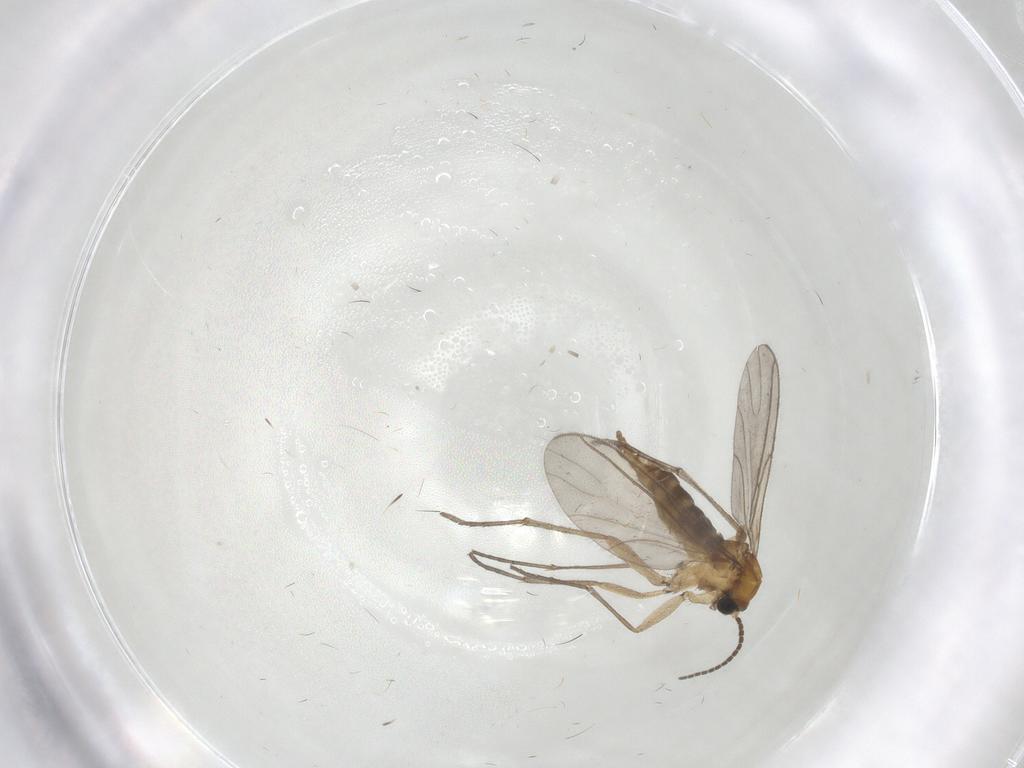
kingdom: Animalia
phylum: Arthropoda
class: Insecta
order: Diptera
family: Sciaridae
